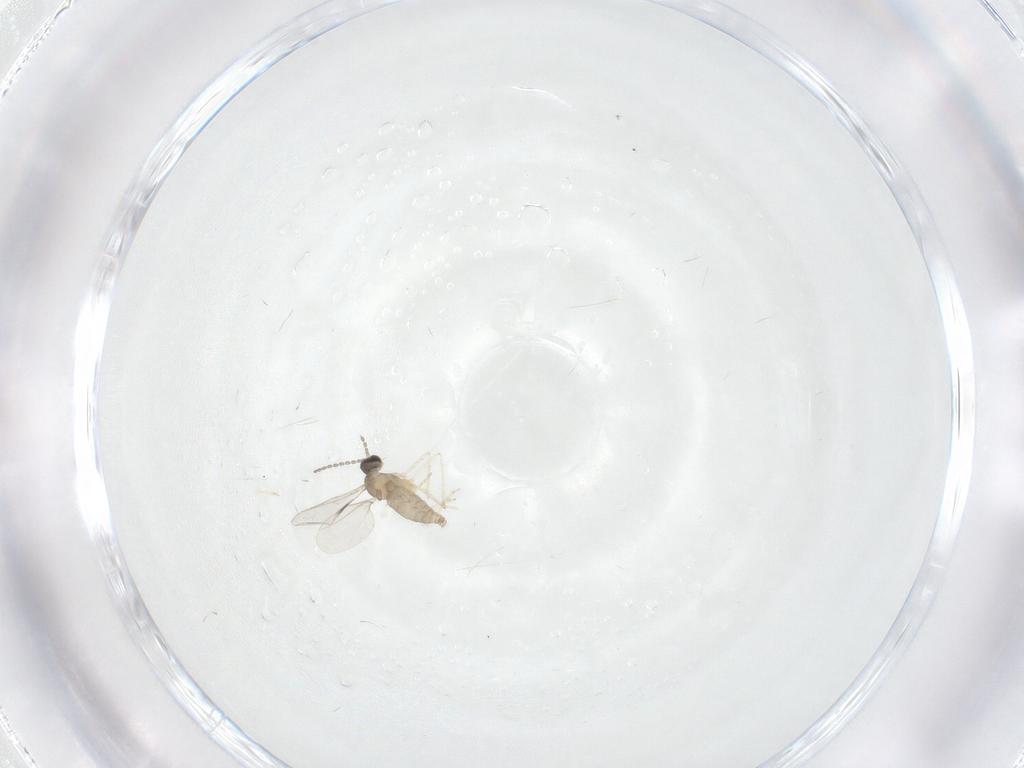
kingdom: Animalia
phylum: Arthropoda
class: Insecta
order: Diptera
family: Cecidomyiidae
